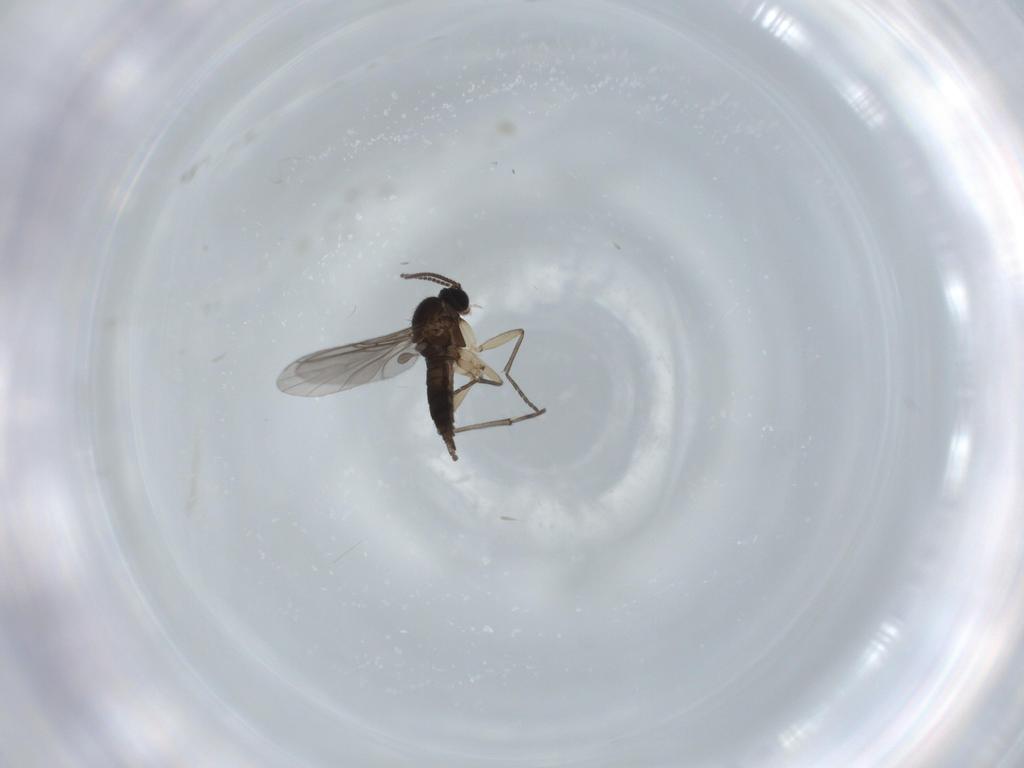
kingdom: Animalia
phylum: Arthropoda
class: Insecta
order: Diptera
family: Sciaridae
